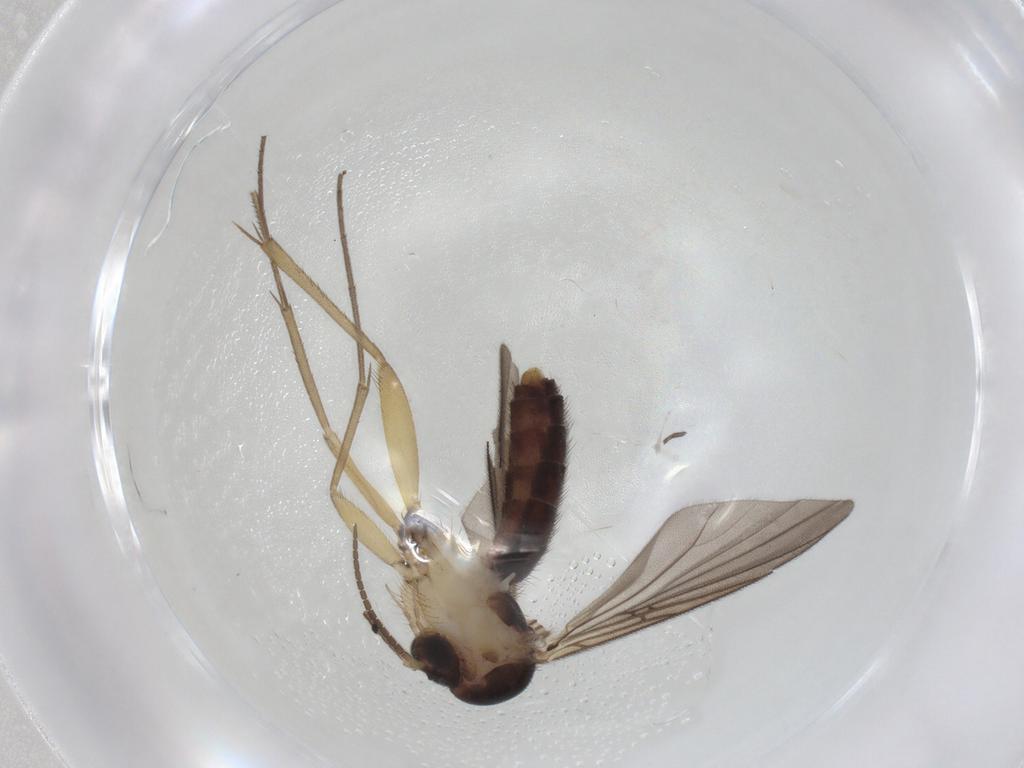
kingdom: Animalia
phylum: Arthropoda
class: Insecta
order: Diptera
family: Mycetophilidae
